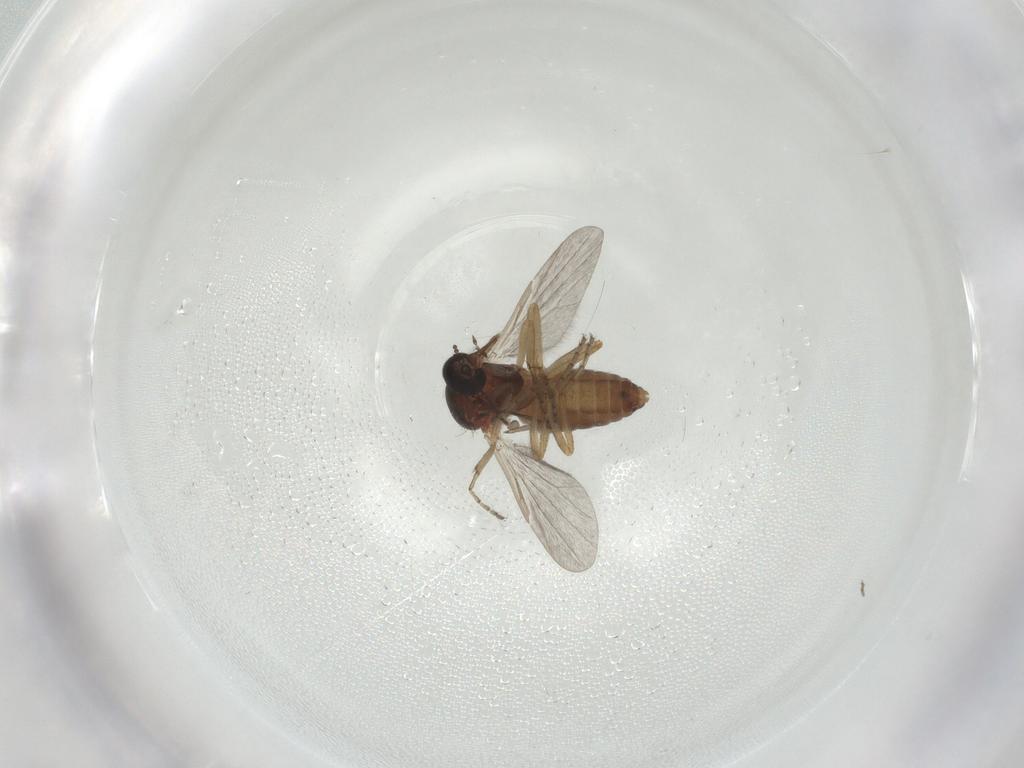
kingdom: Animalia
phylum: Arthropoda
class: Insecta
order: Diptera
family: Ceratopogonidae
